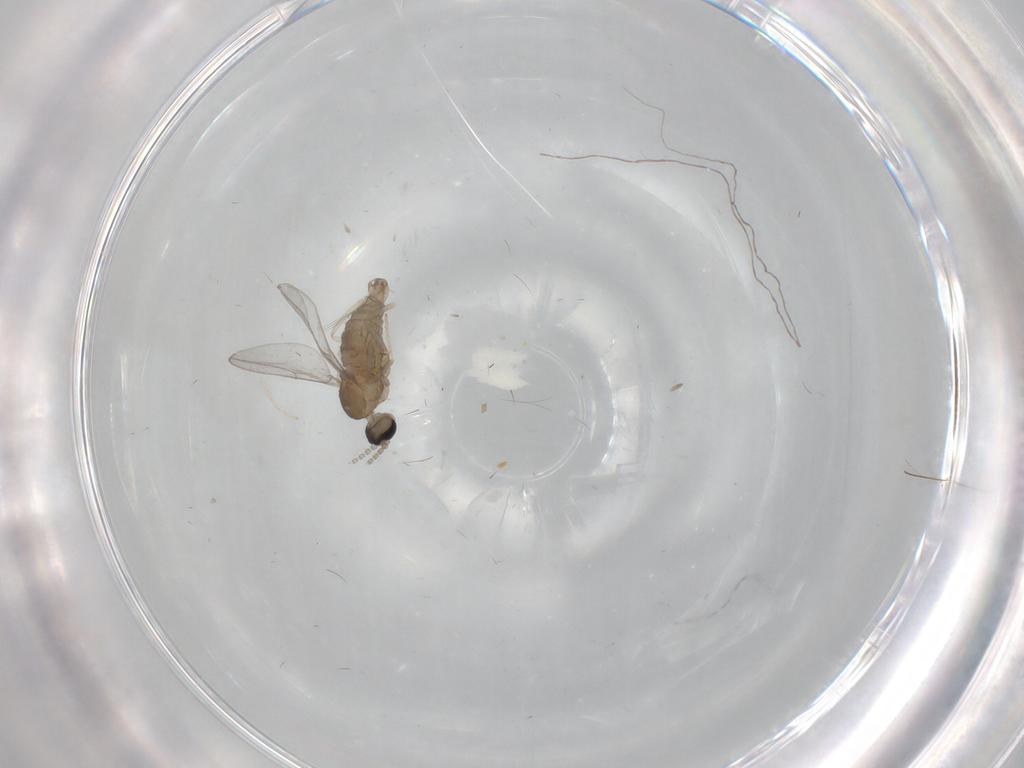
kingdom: Animalia
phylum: Arthropoda
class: Insecta
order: Diptera
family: Cecidomyiidae
